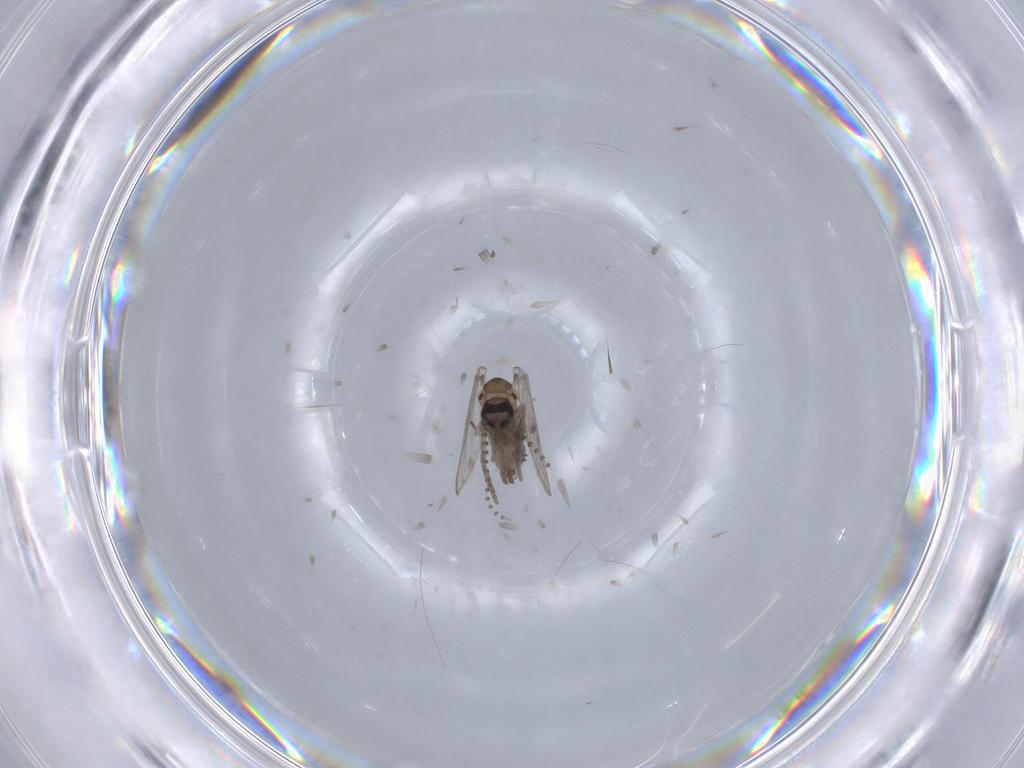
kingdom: Animalia
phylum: Arthropoda
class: Insecta
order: Diptera
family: Psychodidae
